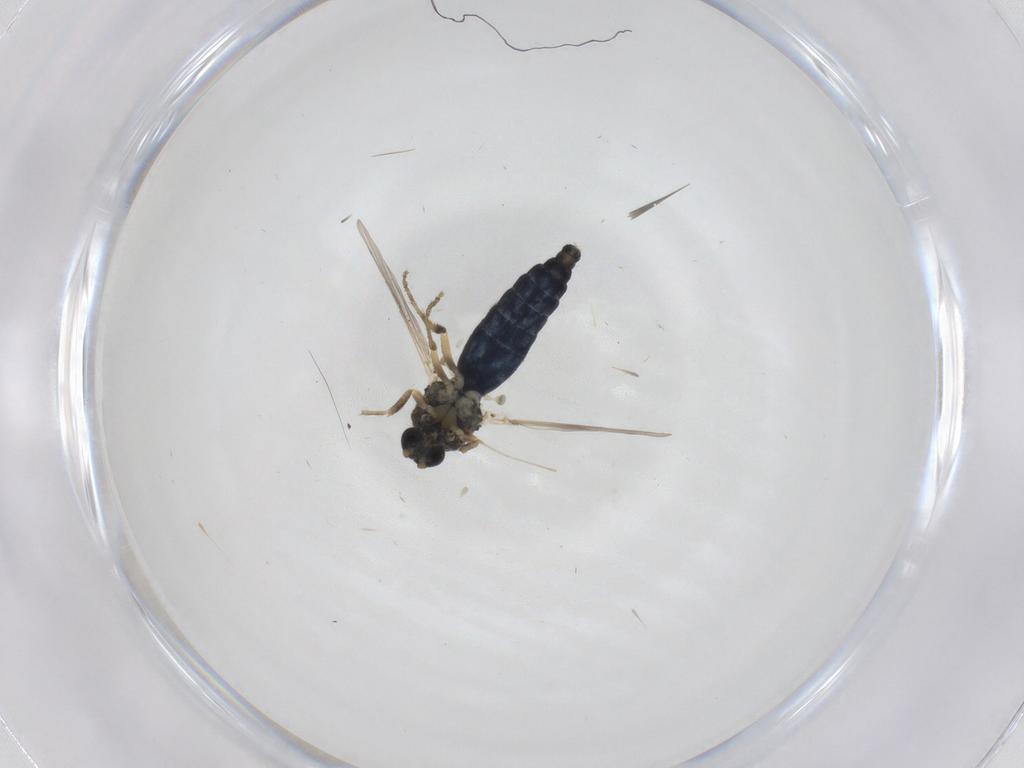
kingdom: Animalia
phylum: Arthropoda
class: Insecta
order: Diptera
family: Ceratopogonidae
